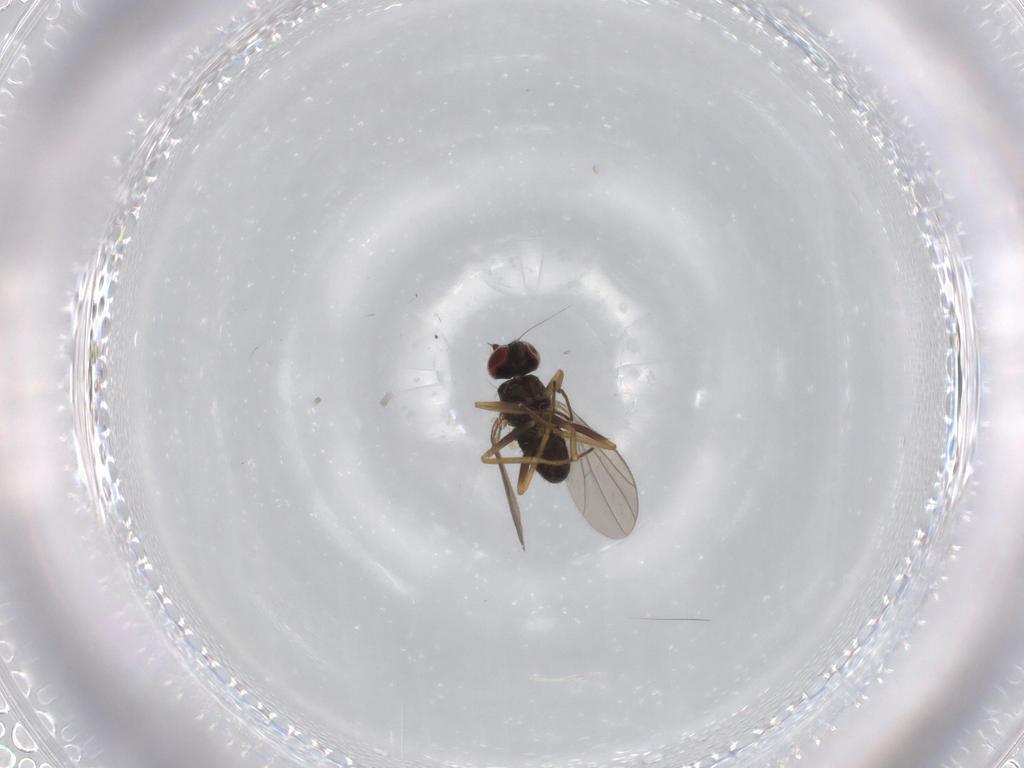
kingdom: Animalia
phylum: Arthropoda
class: Insecta
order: Diptera
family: Dolichopodidae
